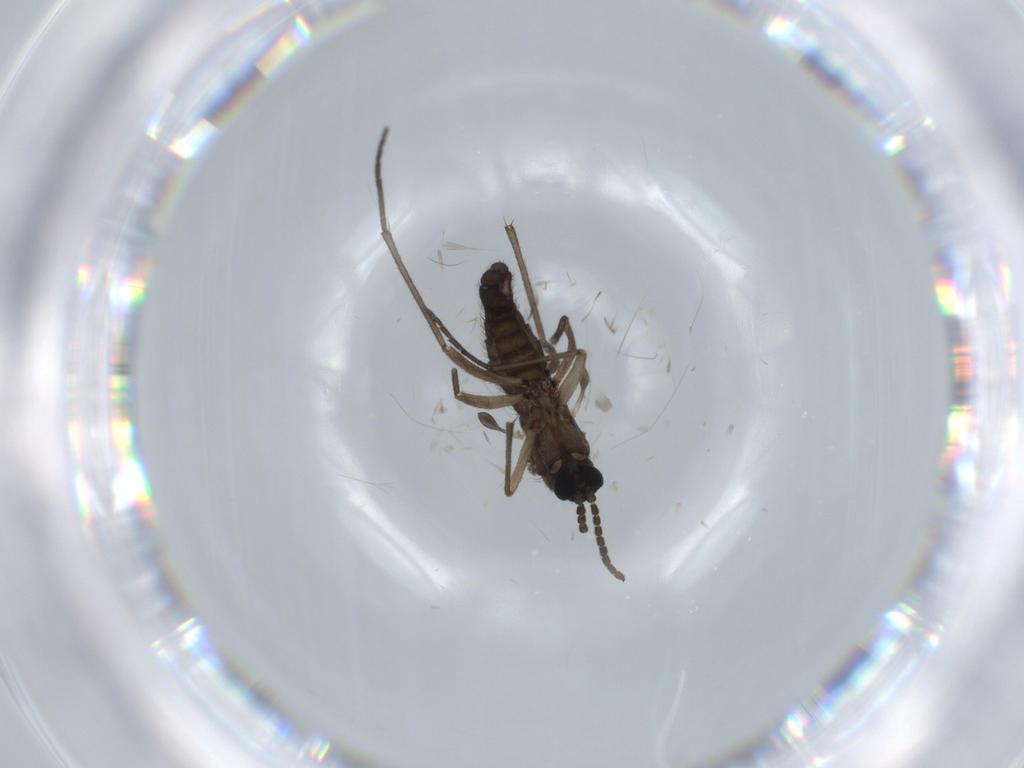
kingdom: Animalia
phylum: Arthropoda
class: Insecta
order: Diptera
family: Sciaridae
